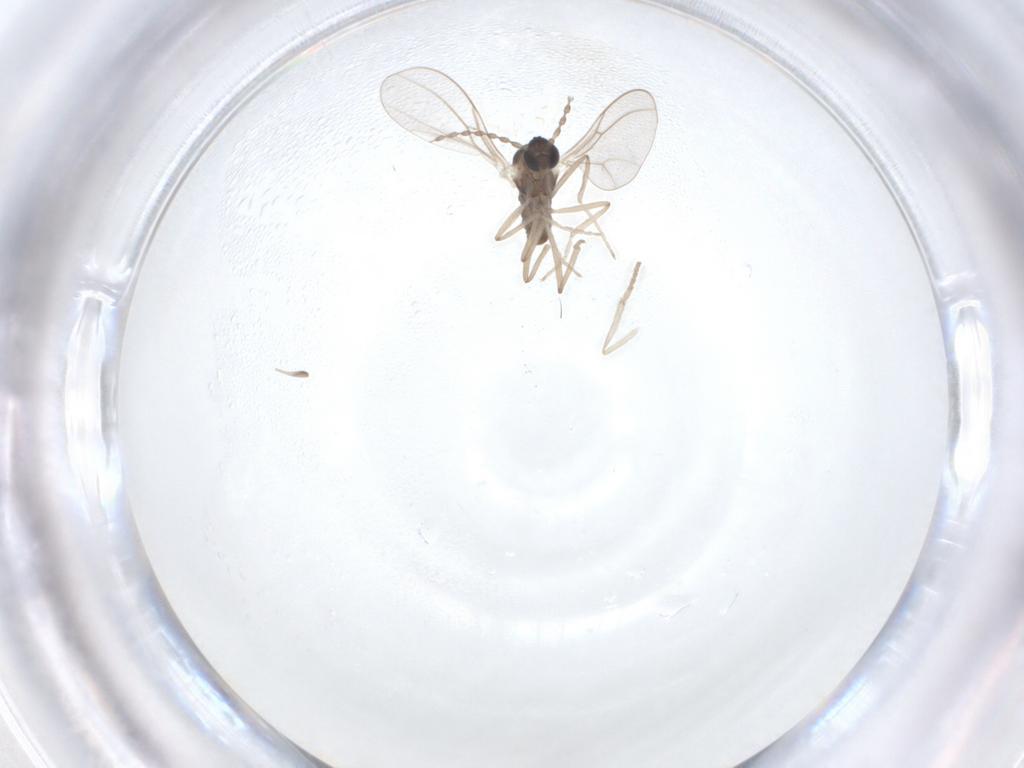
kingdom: Animalia
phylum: Arthropoda
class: Insecta
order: Diptera
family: Cecidomyiidae
